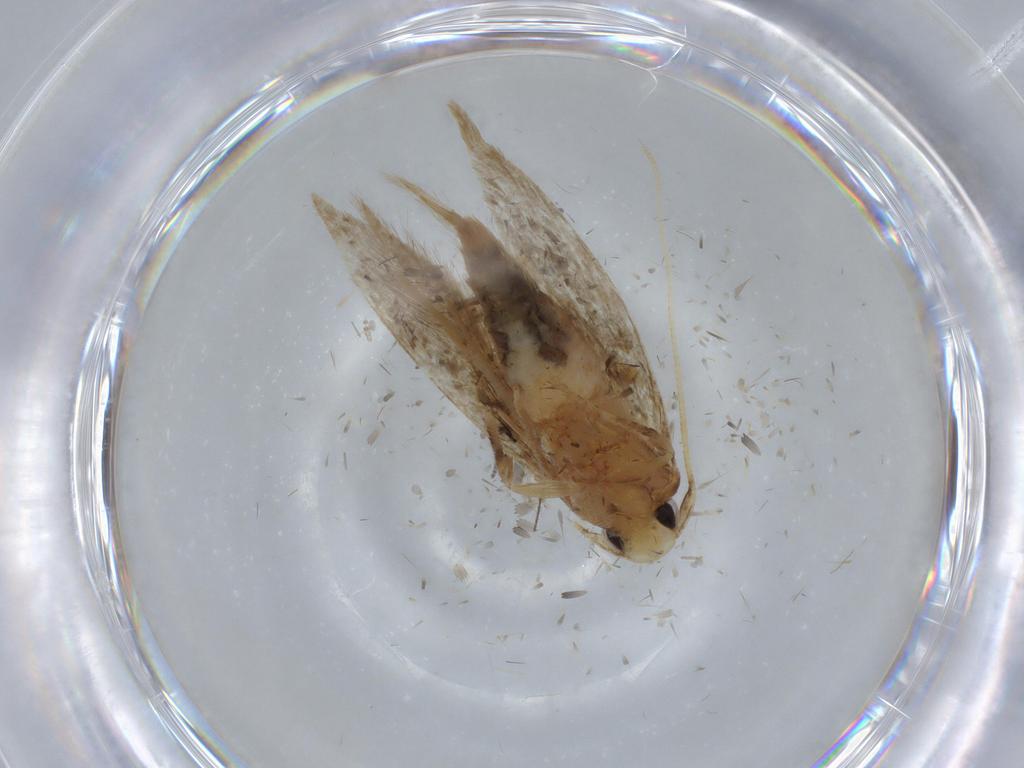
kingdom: Animalia
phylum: Arthropoda
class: Insecta
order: Lepidoptera
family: Tineidae
